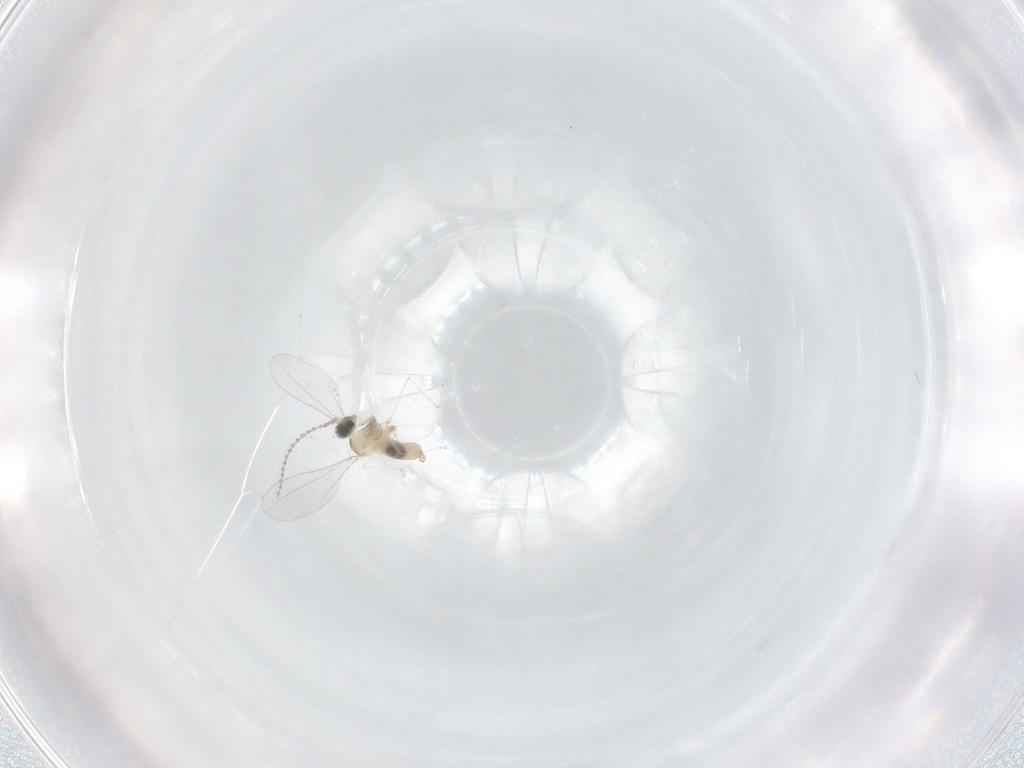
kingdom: Animalia
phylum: Arthropoda
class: Insecta
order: Diptera
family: Cecidomyiidae
